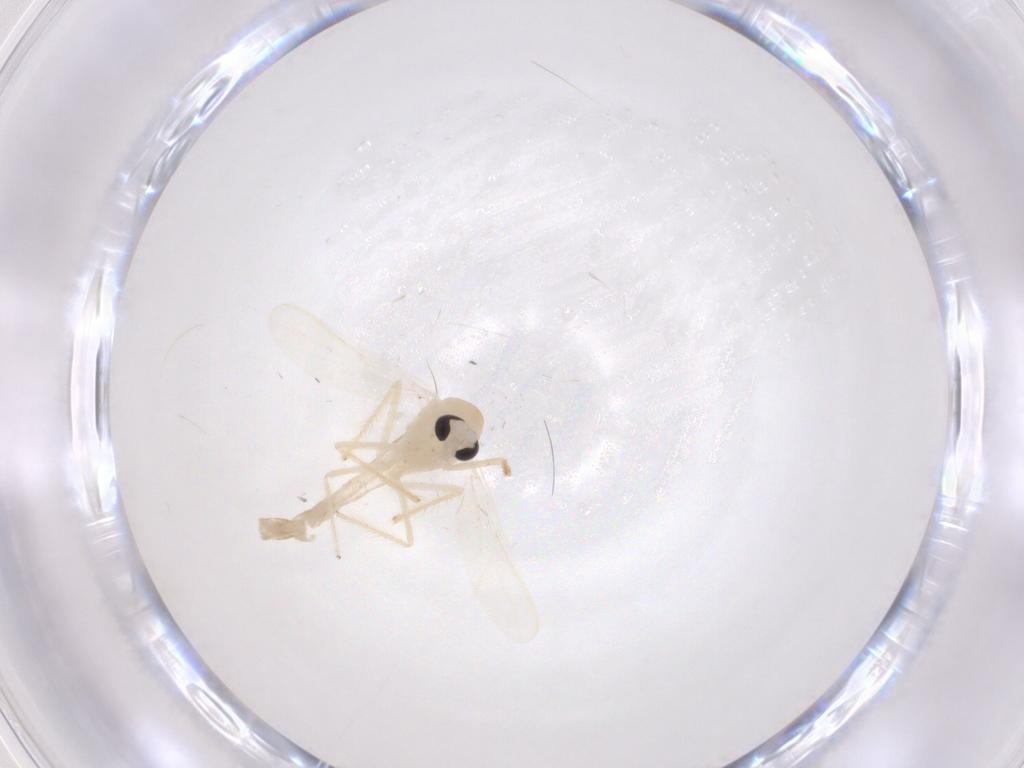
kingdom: Animalia
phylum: Arthropoda
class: Insecta
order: Diptera
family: Chironomidae
